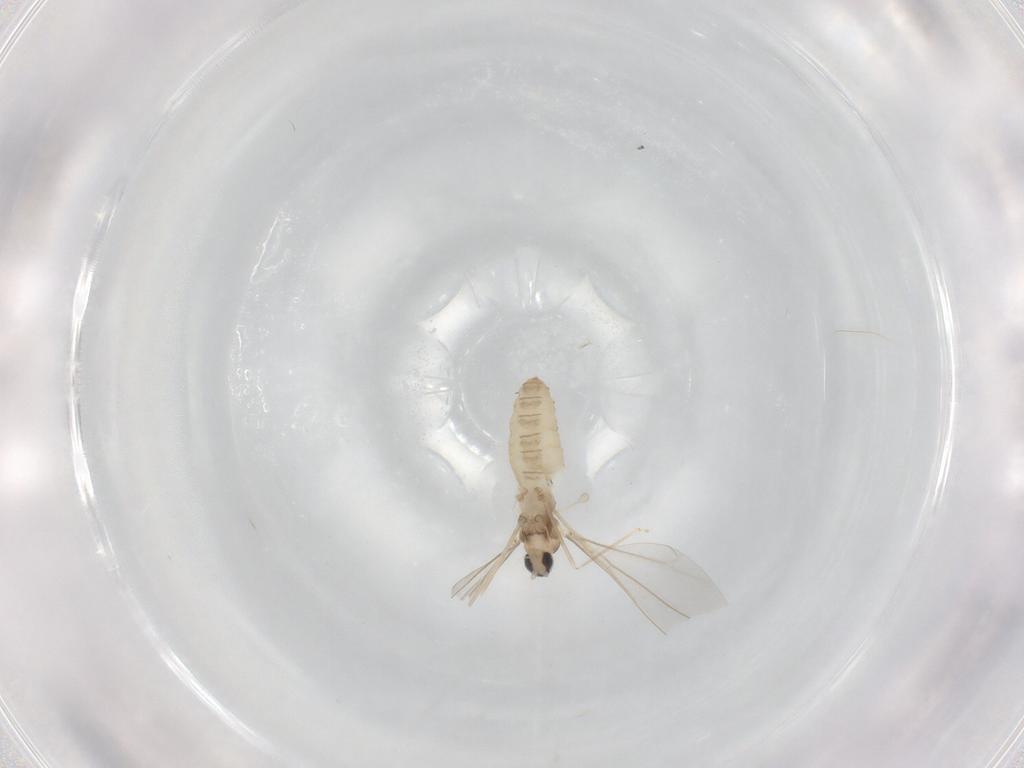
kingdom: Animalia
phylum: Arthropoda
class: Insecta
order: Diptera
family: Cecidomyiidae
